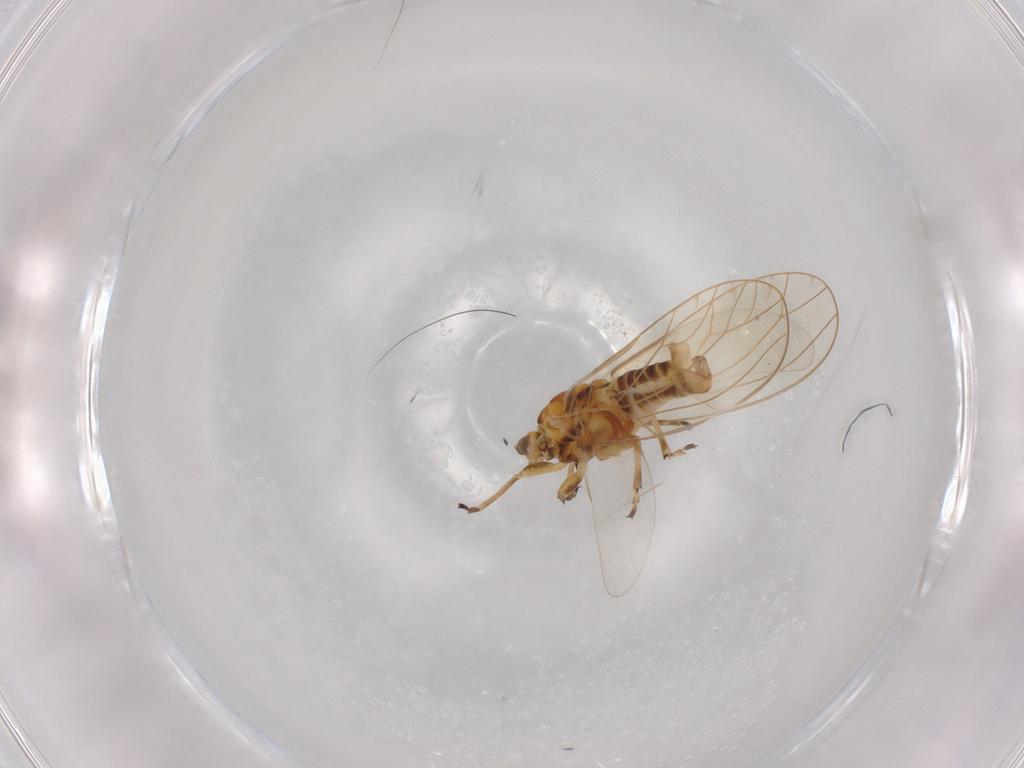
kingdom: Animalia
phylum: Arthropoda
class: Insecta
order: Hemiptera
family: Triozidae
